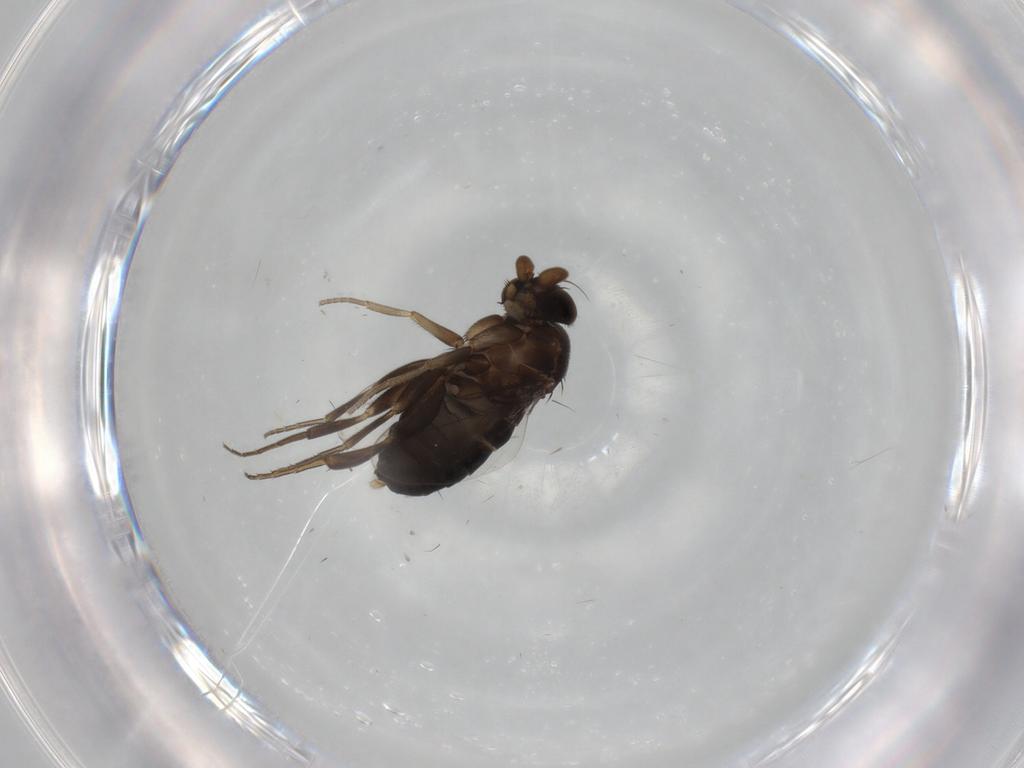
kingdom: Animalia
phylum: Arthropoda
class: Insecta
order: Diptera
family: Phoridae
